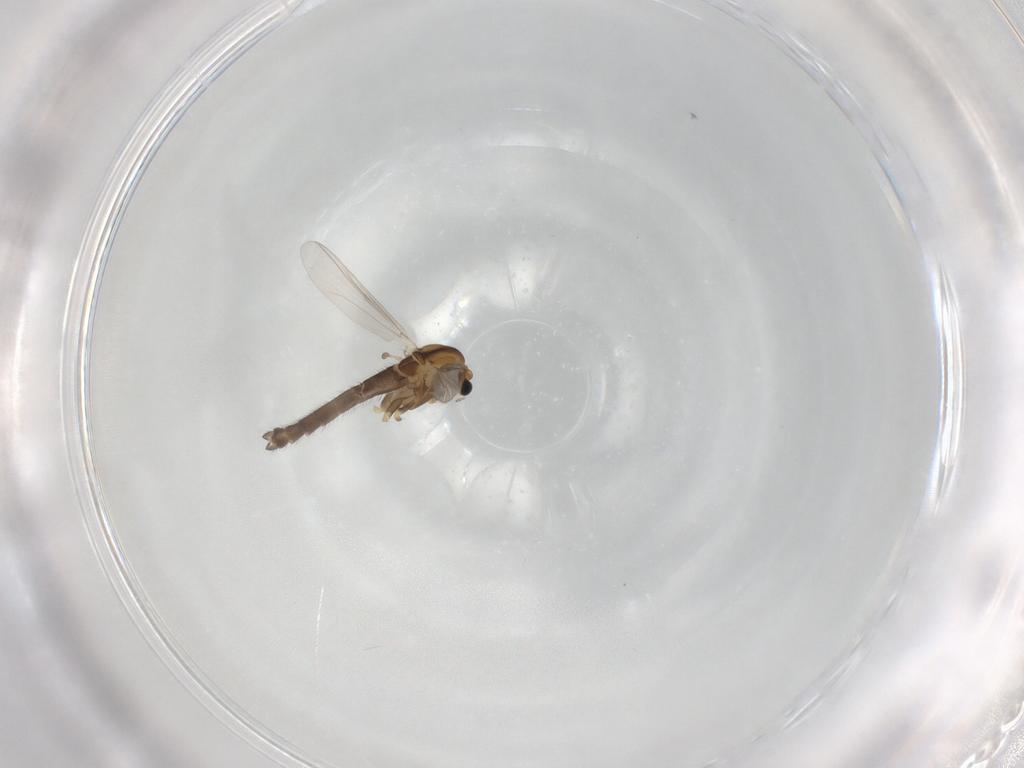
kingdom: Animalia
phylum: Arthropoda
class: Insecta
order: Diptera
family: Chironomidae
